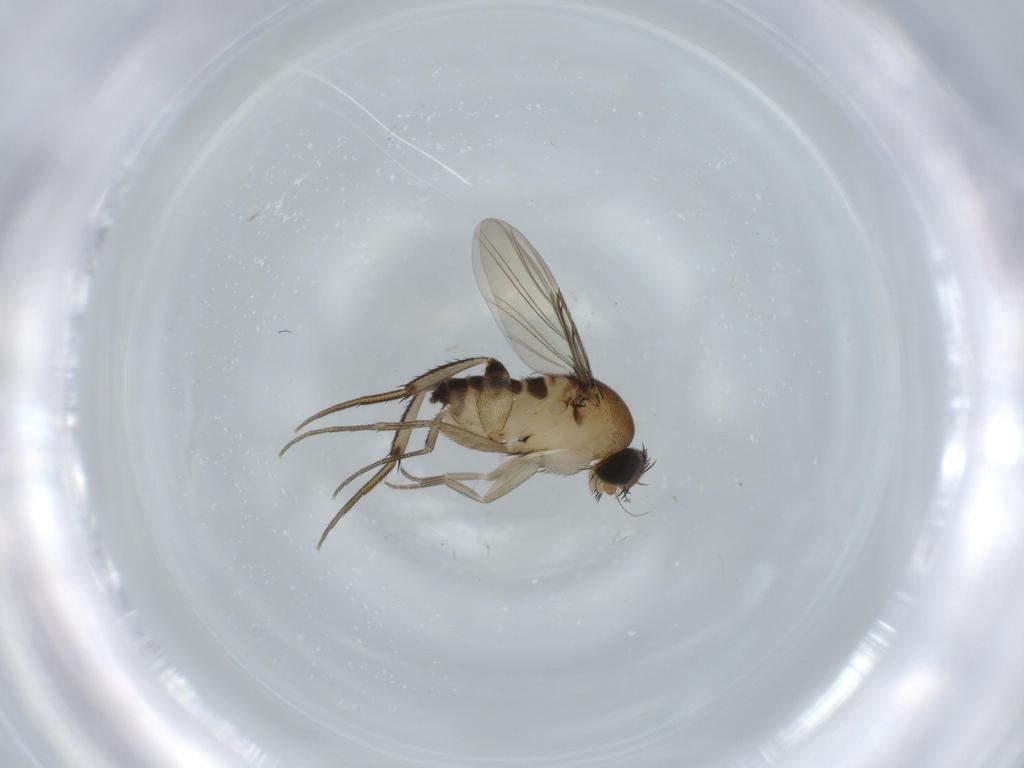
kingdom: Animalia
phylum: Arthropoda
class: Insecta
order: Diptera
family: Phoridae
